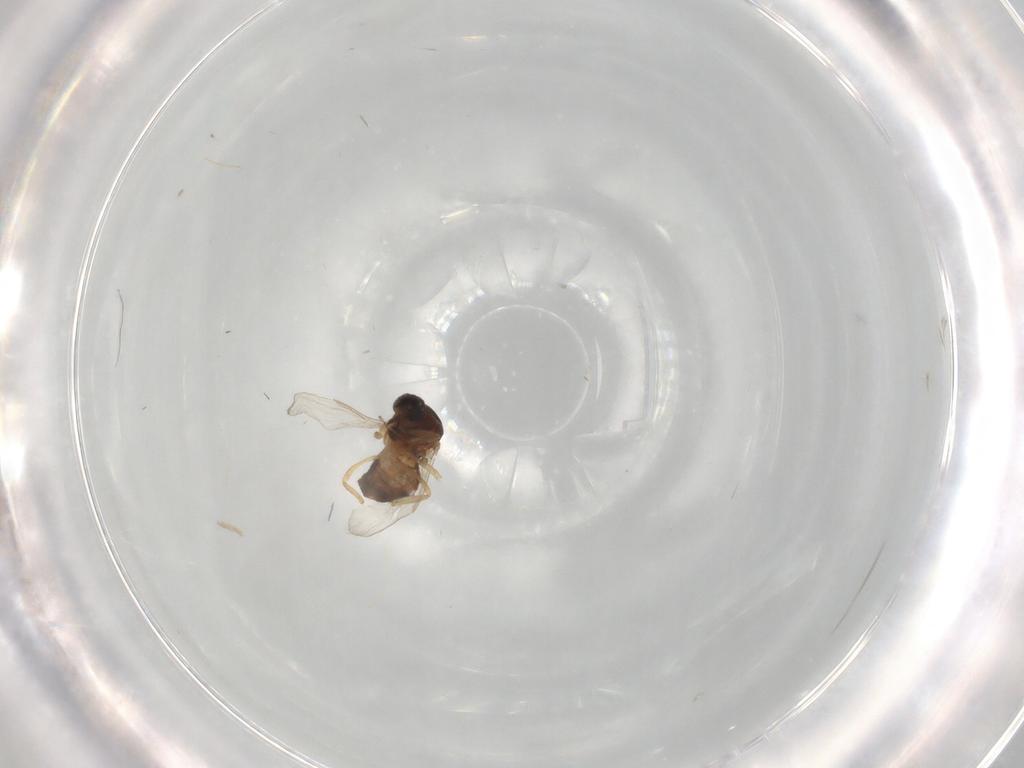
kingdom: Animalia
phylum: Arthropoda
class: Insecta
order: Diptera
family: Ceratopogonidae
